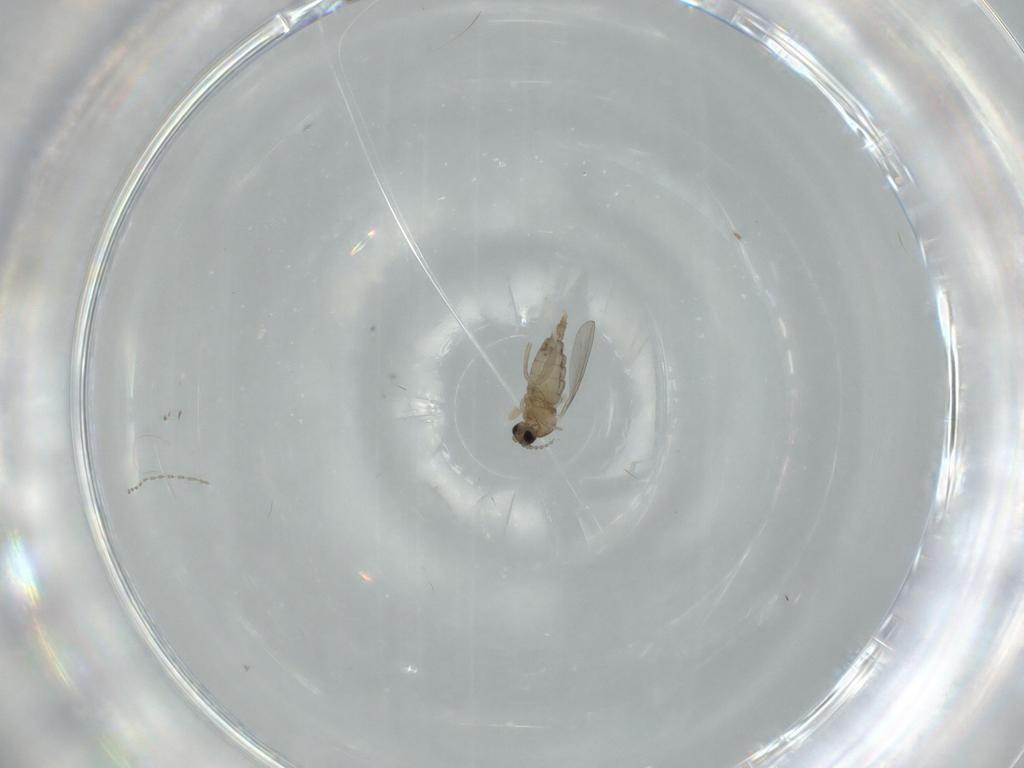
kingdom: Animalia
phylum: Arthropoda
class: Insecta
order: Diptera
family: Cecidomyiidae
